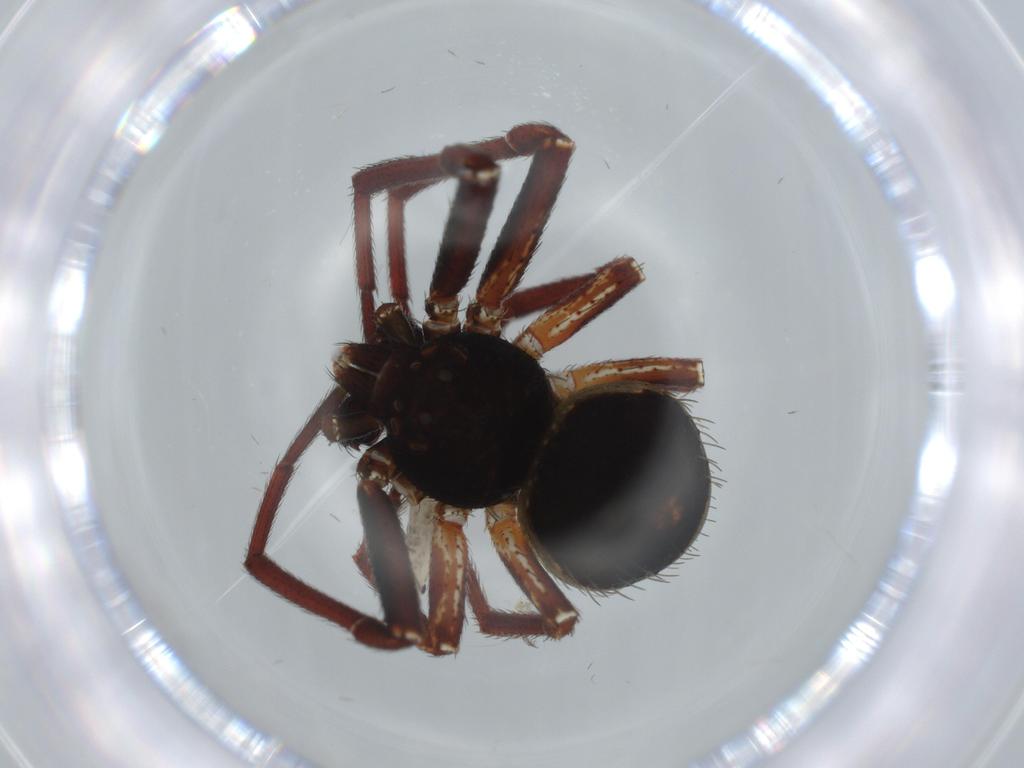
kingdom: Animalia
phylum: Arthropoda
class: Arachnida
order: Araneae
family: Thomisidae
